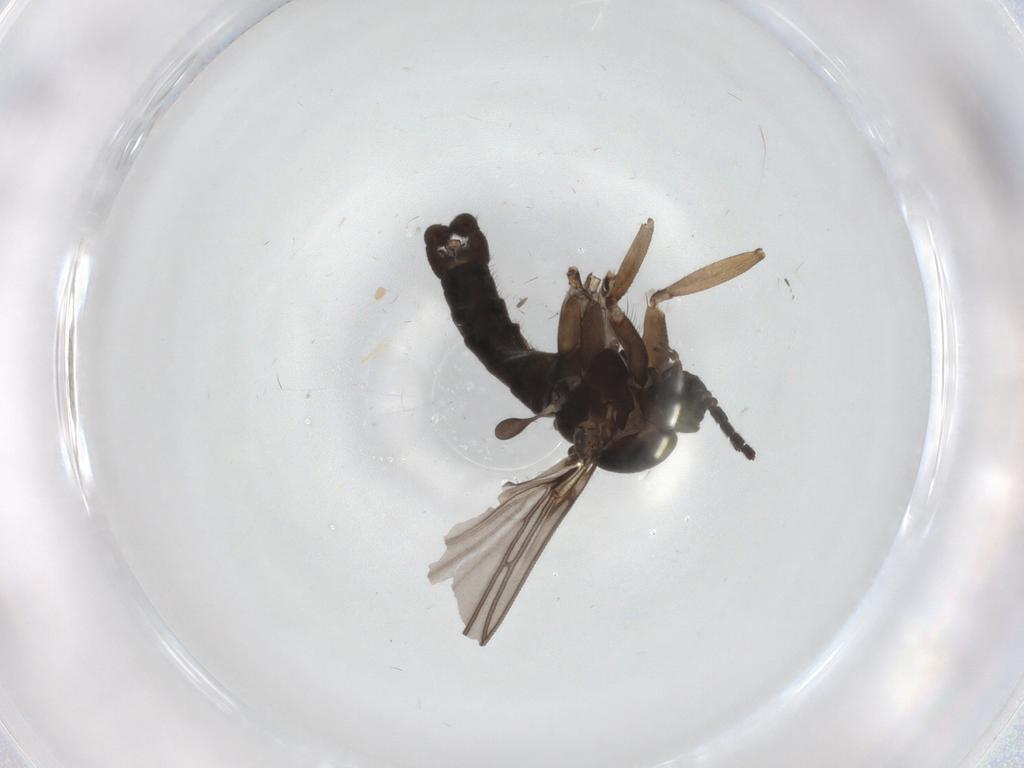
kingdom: Animalia
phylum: Arthropoda
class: Insecta
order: Diptera
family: Sciaridae
